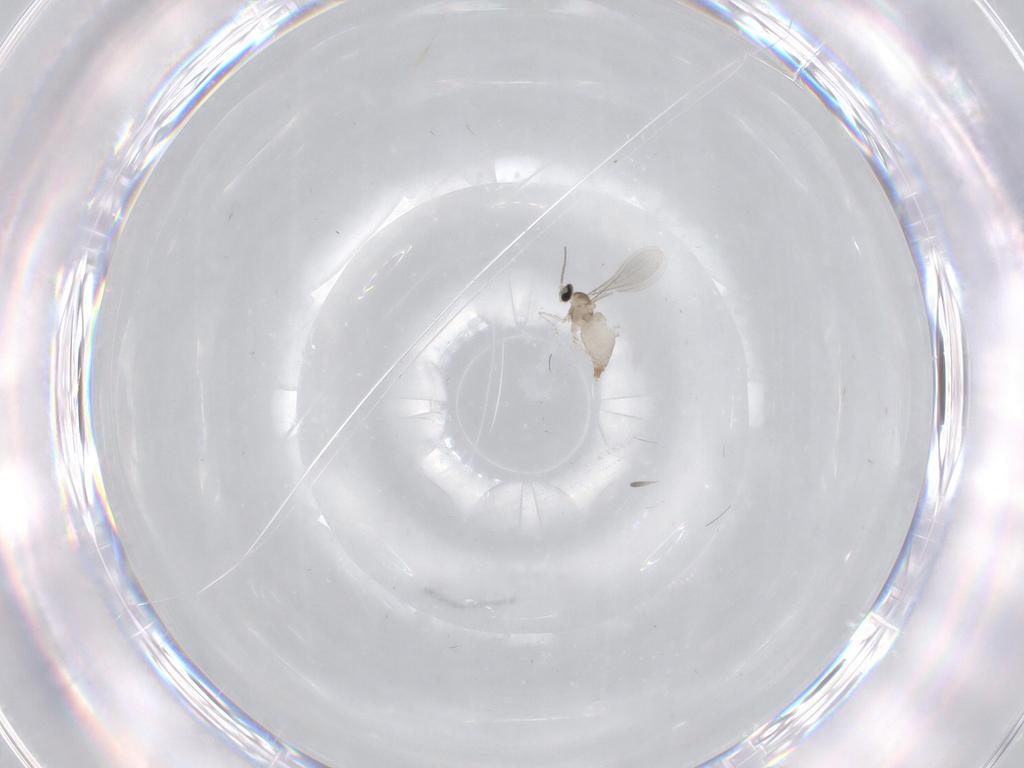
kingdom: Animalia
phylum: Arthropoda
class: Insecta
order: Diptera
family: Cecidomyiidae
